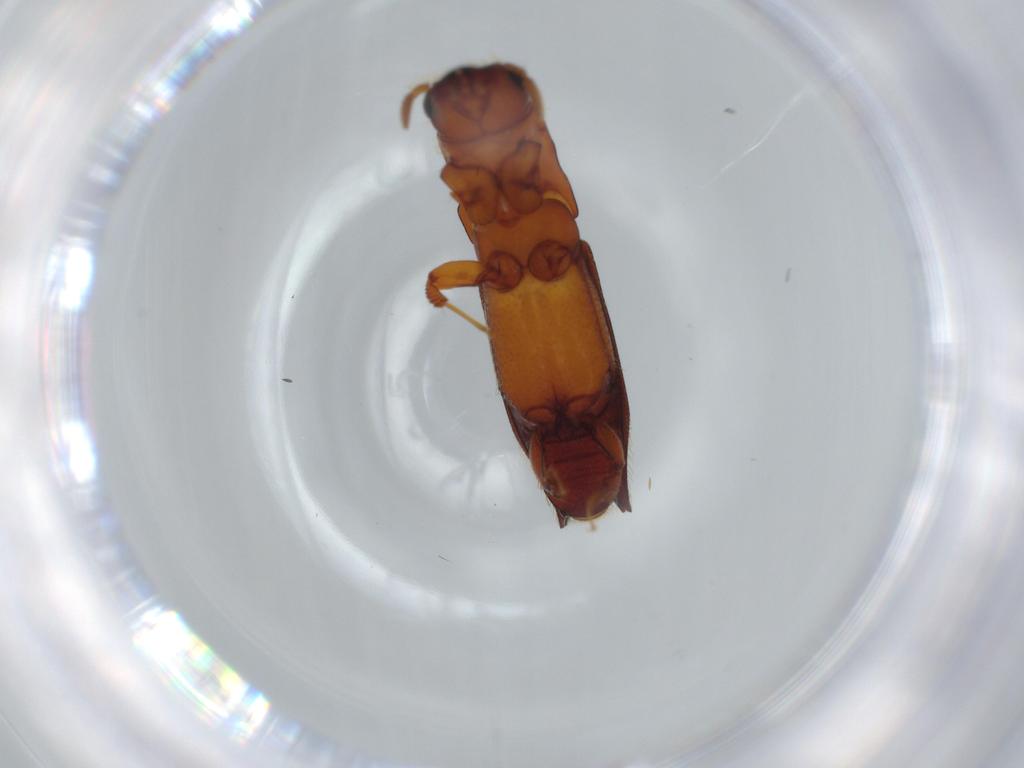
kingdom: Animalia
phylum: Arthropoda
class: Insecta
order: Coleoptera
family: Curculionidae
